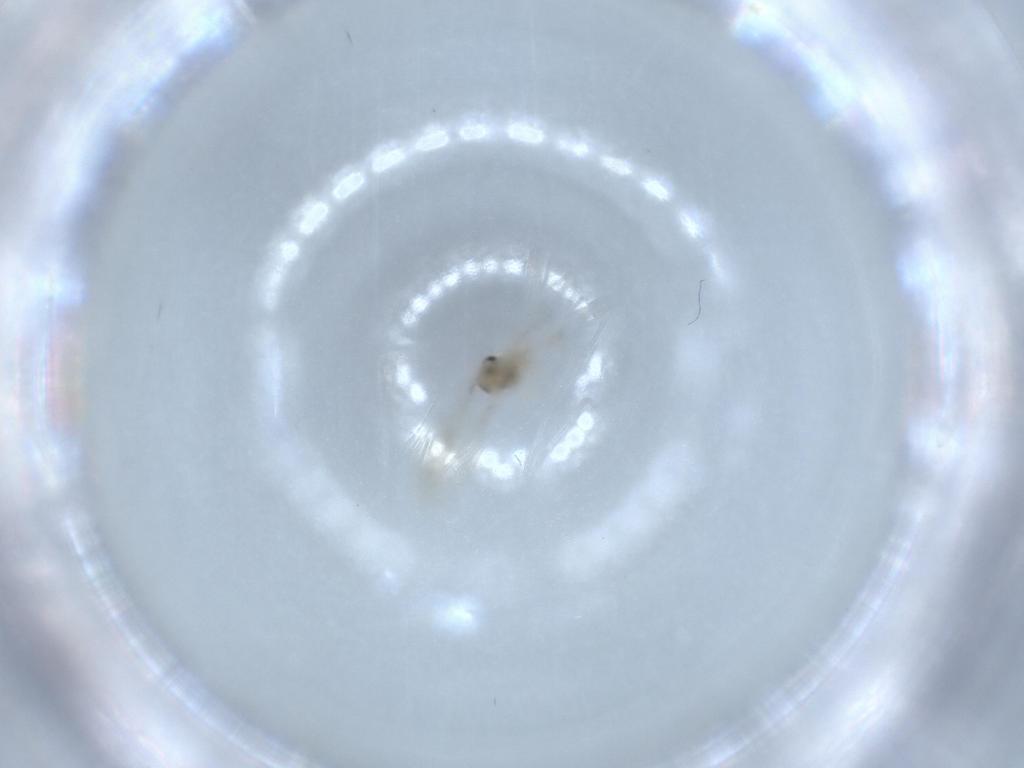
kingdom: Animalia
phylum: Arthropoda
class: Insecta
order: Diptera
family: Cecidomyiidae
